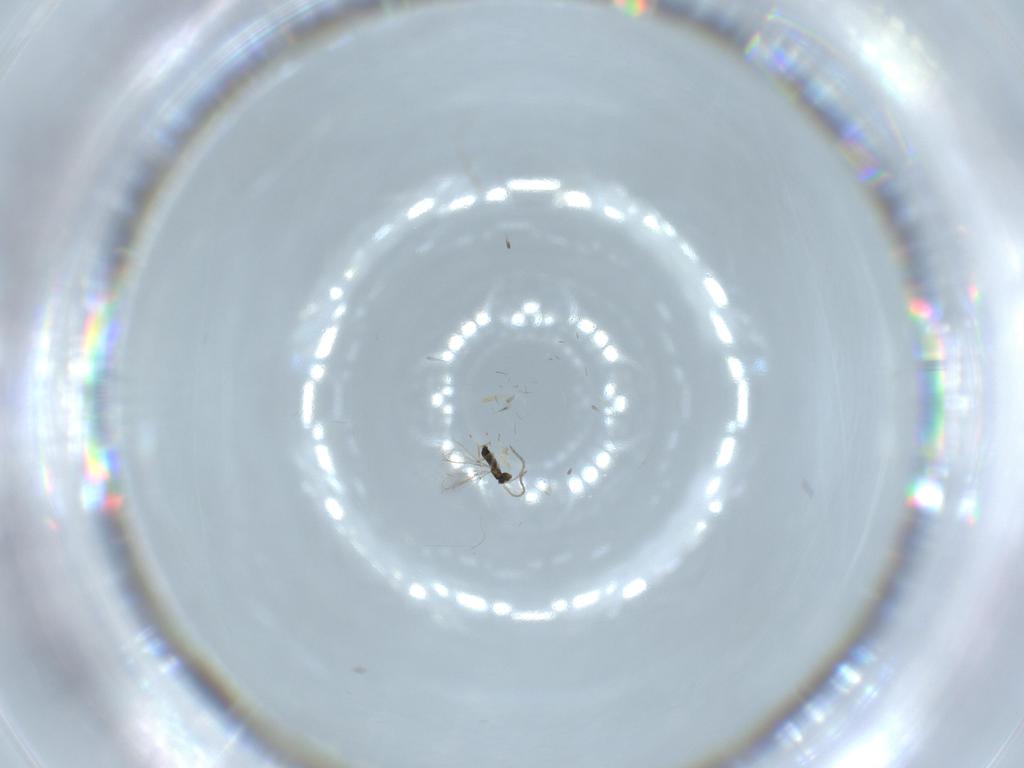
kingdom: Animalia
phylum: Arthropoda
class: Insecta
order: Hymenoptera
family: Mymaridae
